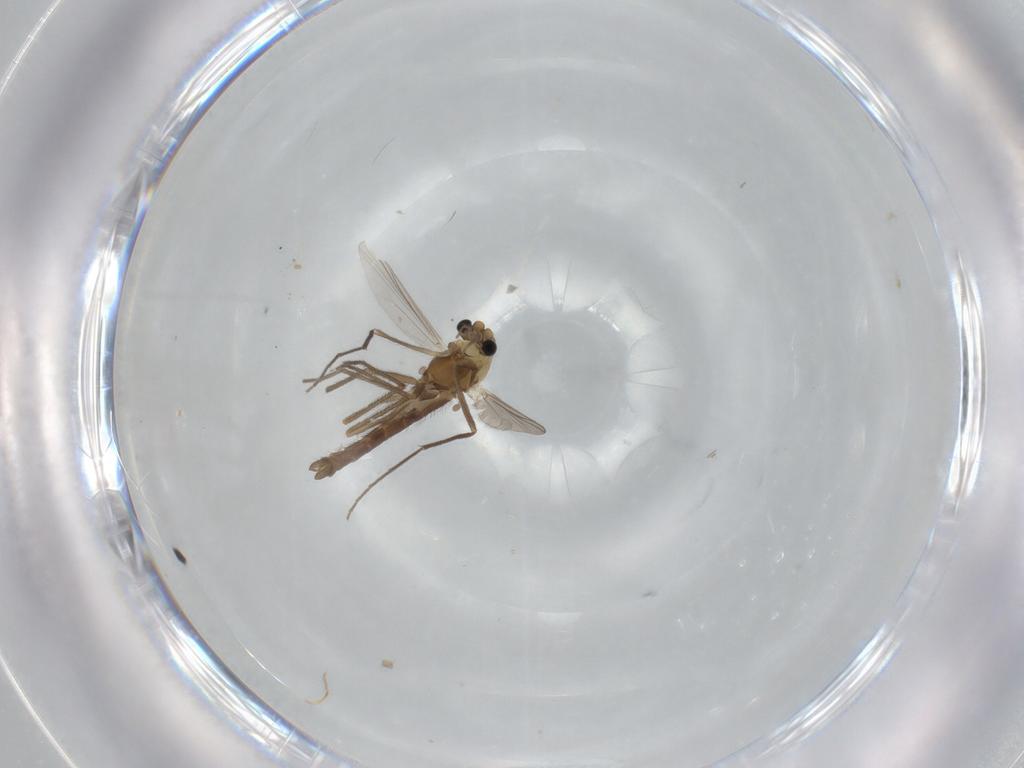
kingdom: Animalia
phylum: Arthropoda
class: Insecta
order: Diptera
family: Chironomidae
